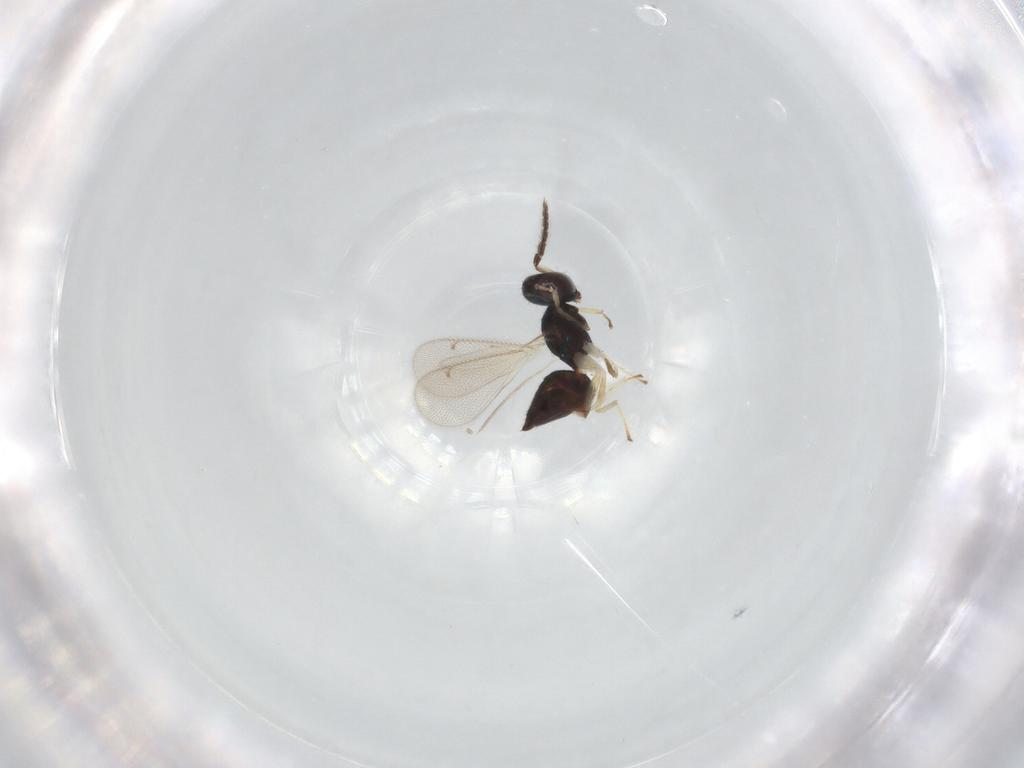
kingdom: Animalia
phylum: Arthropoda
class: Insecta
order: Hymenoptera
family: Eulophidae
